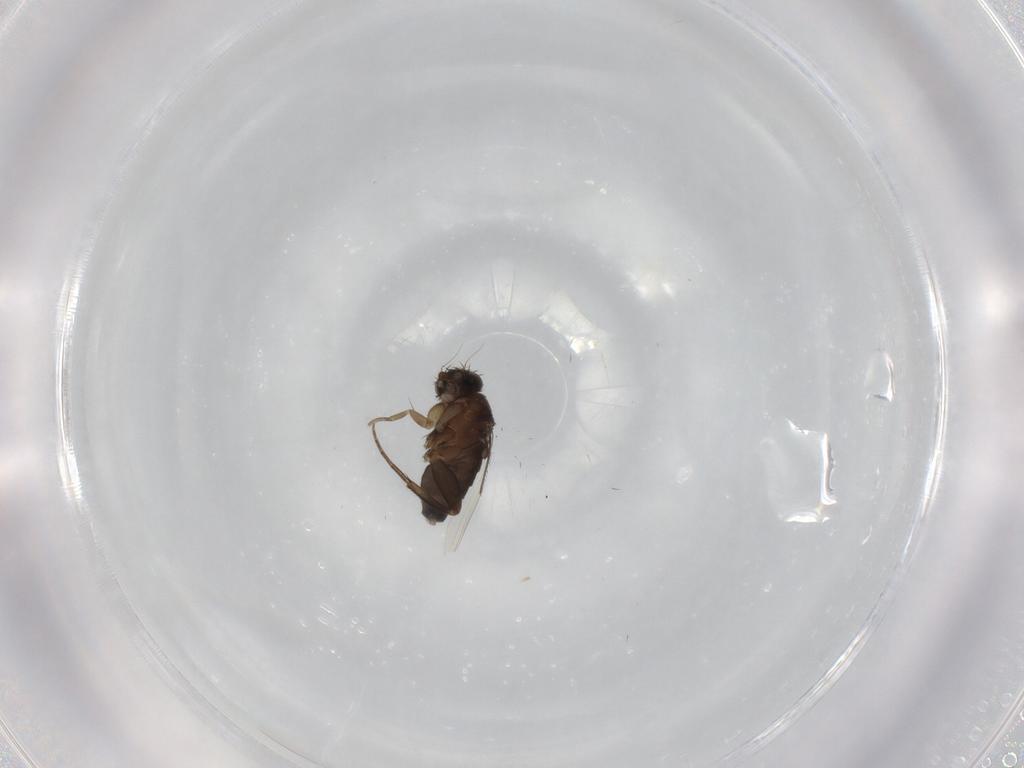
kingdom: Animalia
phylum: Arthropoda
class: Insecta
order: Diptera
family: Phoridae
